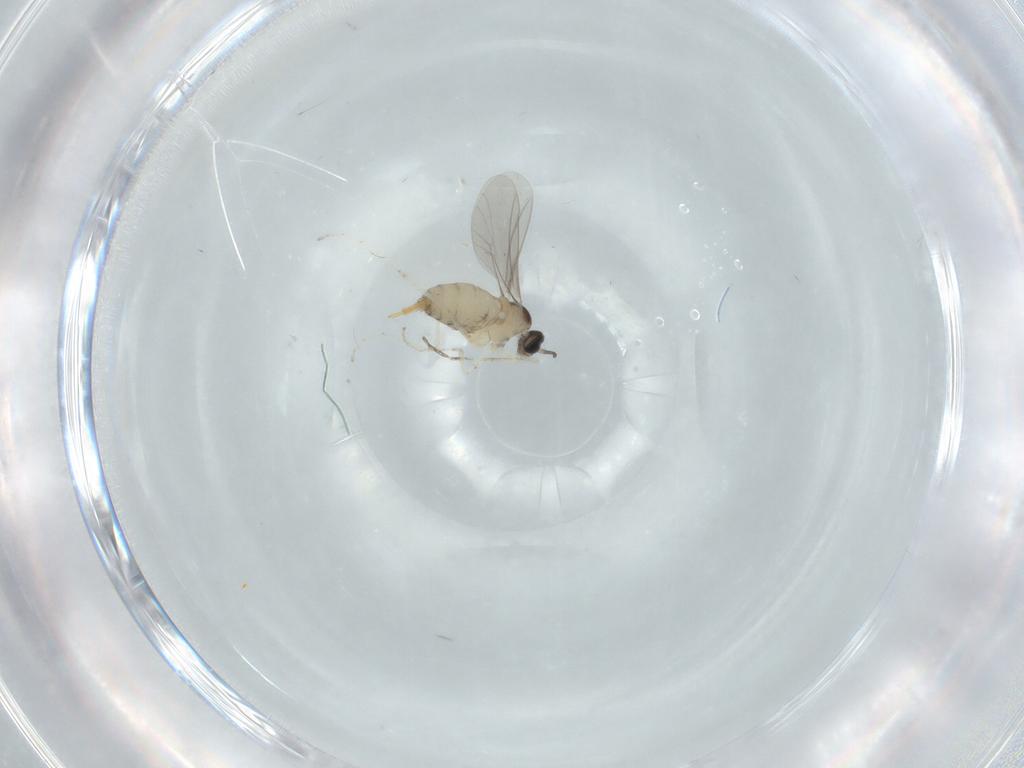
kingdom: Animalia
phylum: Arthropoda
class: Insecta
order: Diptera
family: Cecidomyiidae
